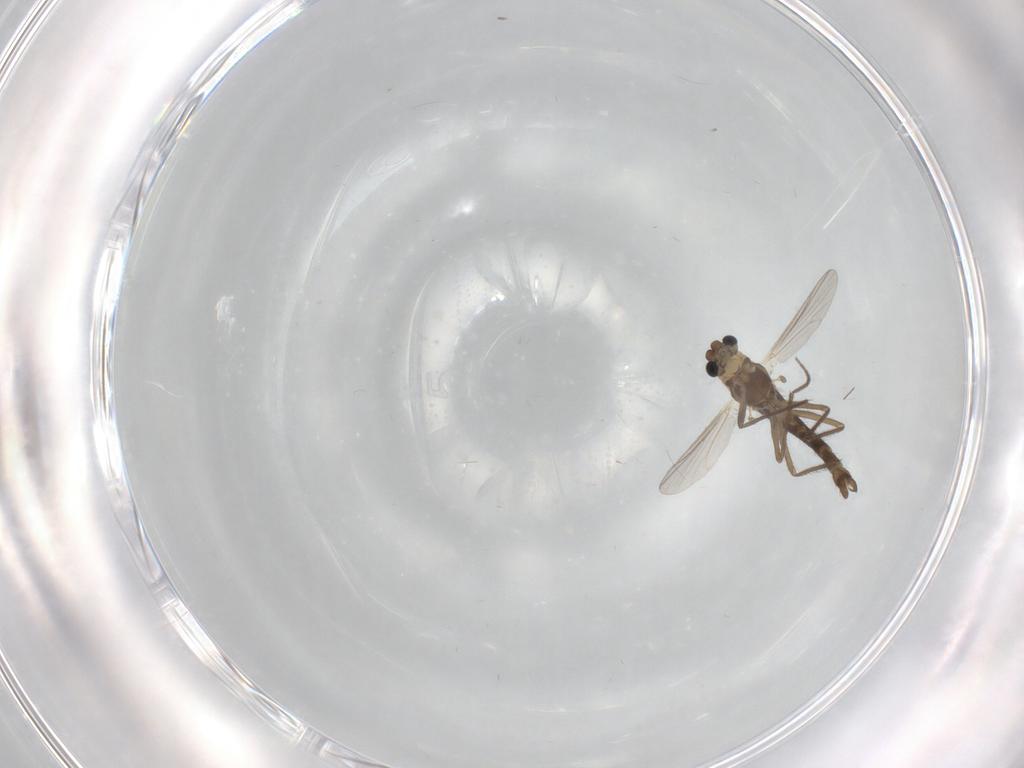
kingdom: Animalia
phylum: Arthropoda
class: Insecta
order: Diptera
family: Chironomidae
